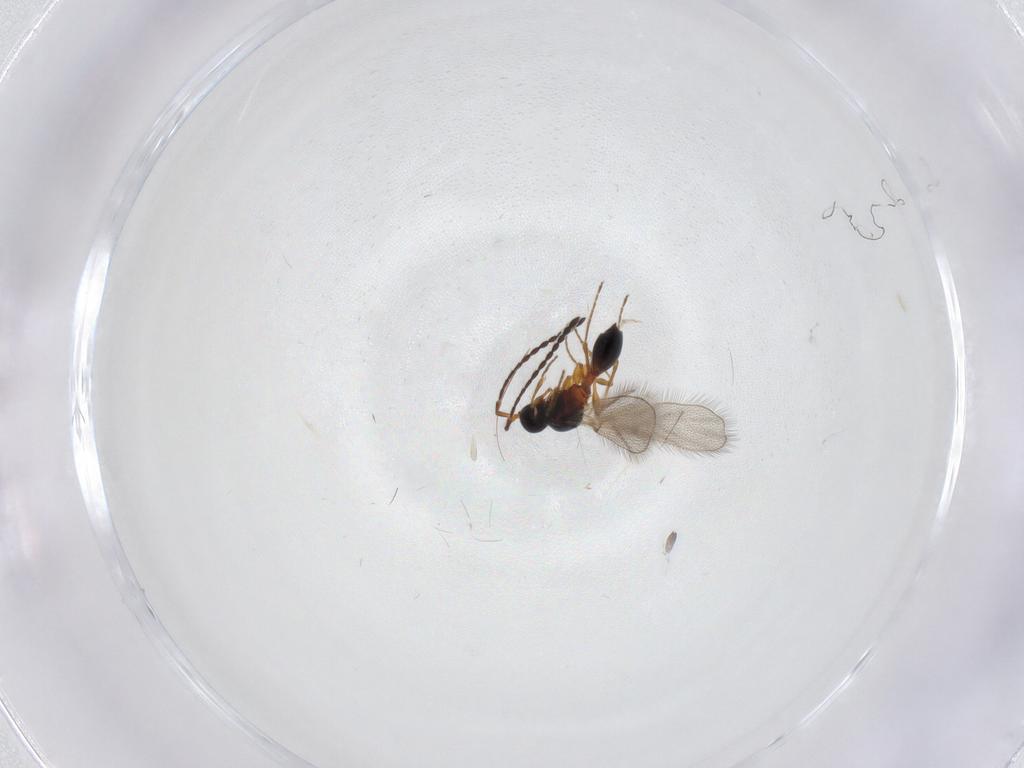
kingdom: Animalia
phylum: Arthropoda
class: Insecta
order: Hymenoptera
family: Diapriidae
